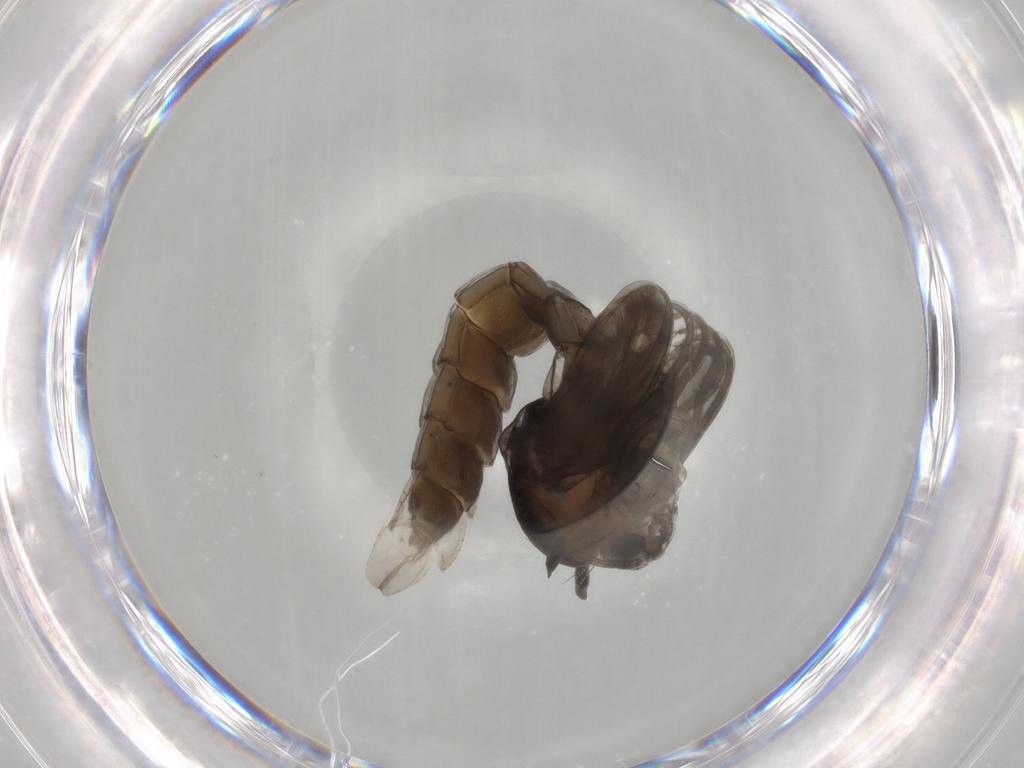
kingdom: Animalia
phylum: Arthropoda
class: Insecta
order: Diptera
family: Chironomidae
